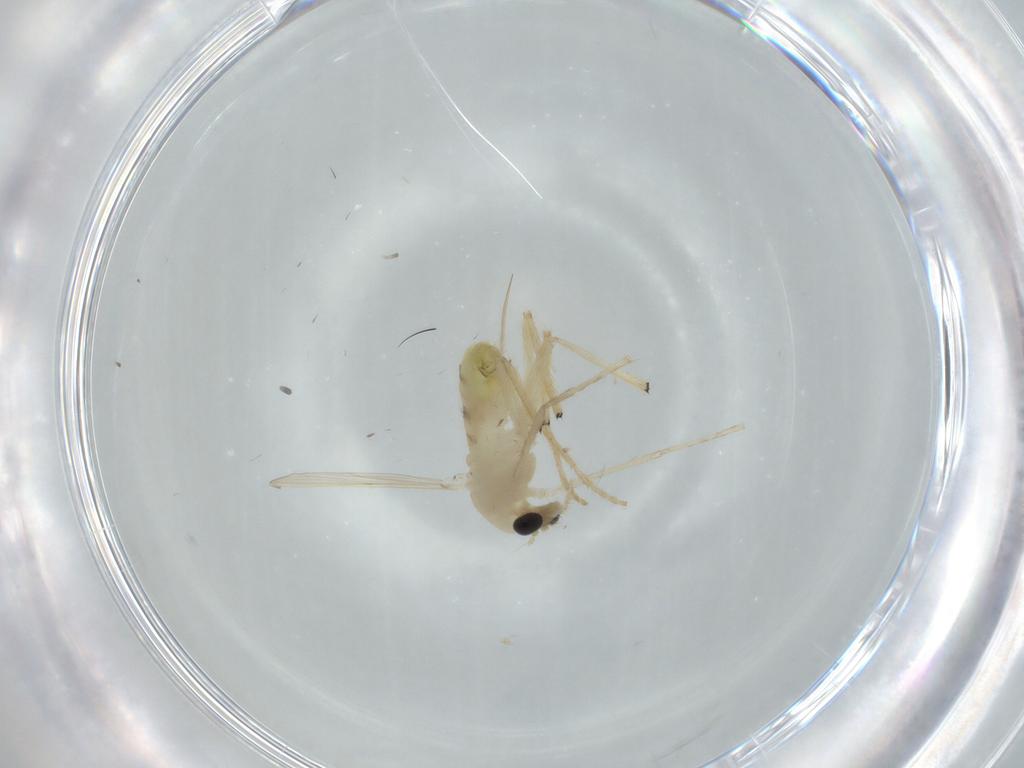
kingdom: Animalia
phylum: Arthropoda
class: Insecta
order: Diptera
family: Chironomidae
